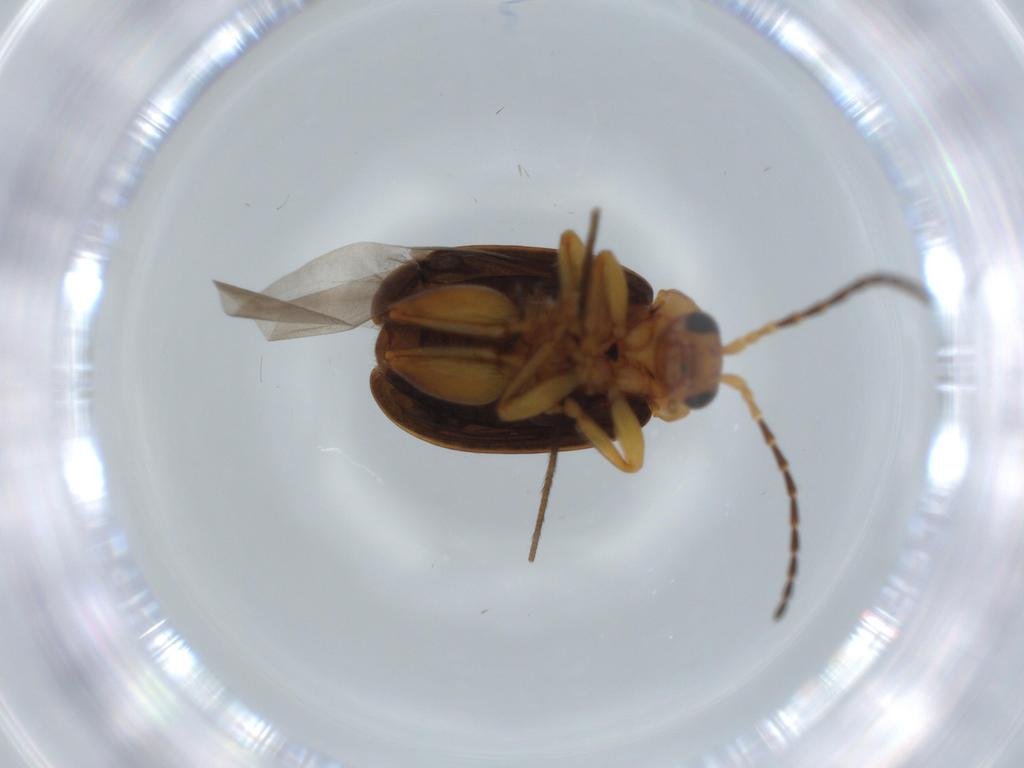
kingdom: Animalia
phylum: Arthropoda
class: Insecta
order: Coleoptera
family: Chrysomelidae
